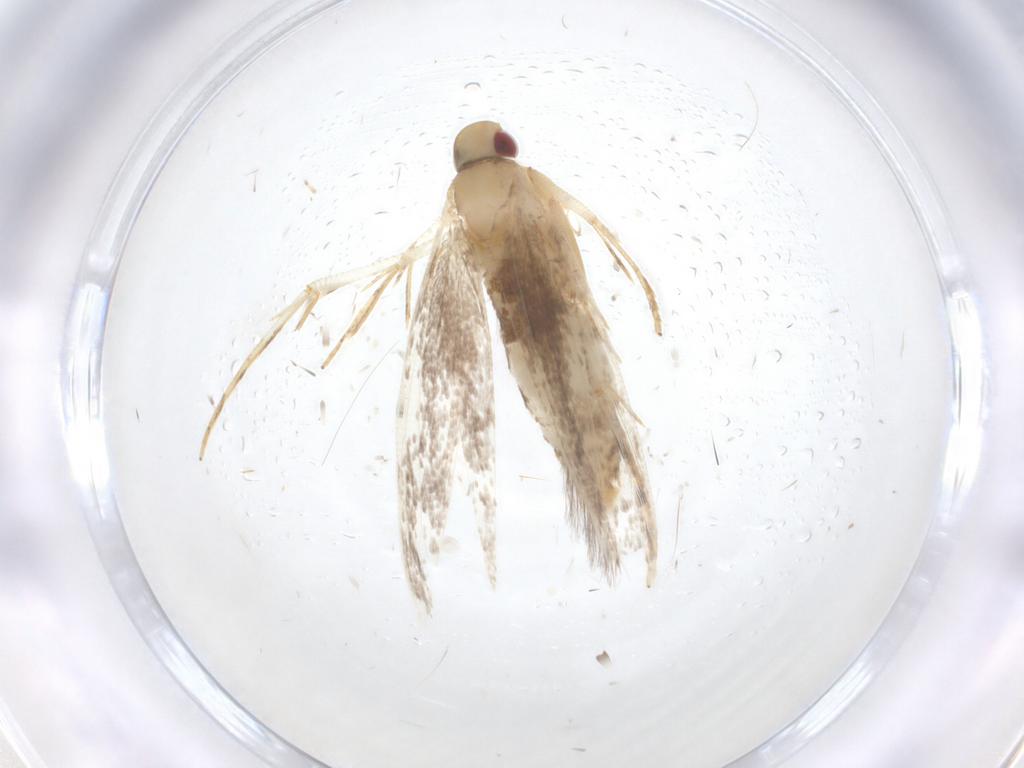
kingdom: Animalia
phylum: Arthropoda
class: Insecta
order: Lepidoptera
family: Cosmopterigidae
